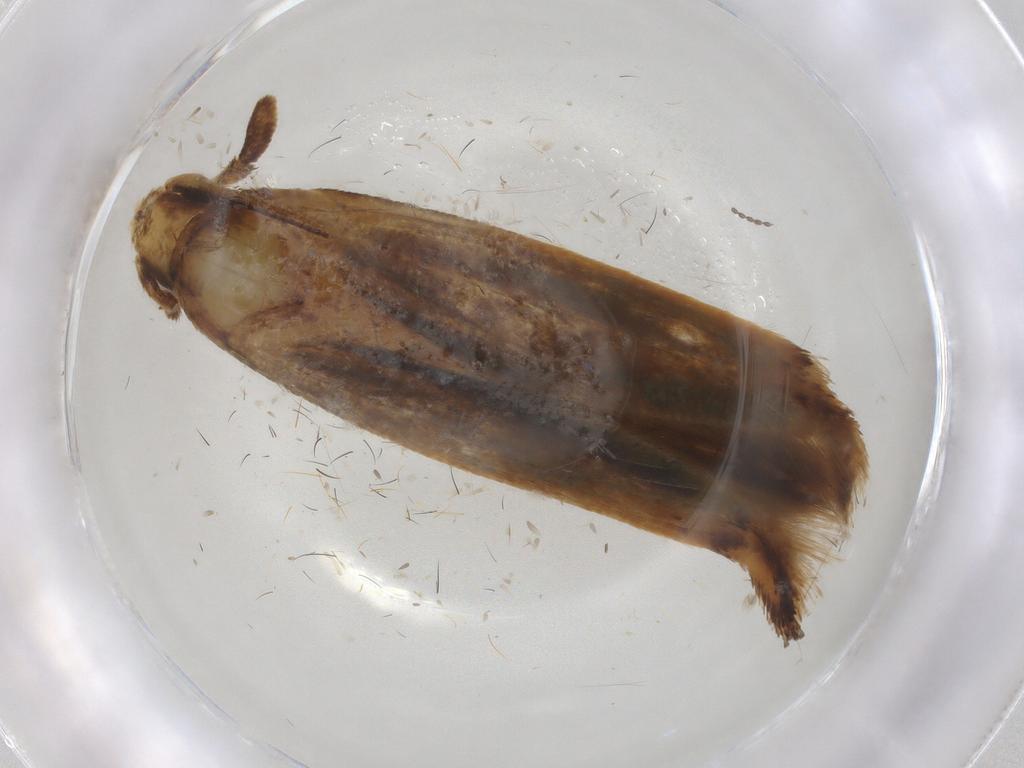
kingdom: Animalia
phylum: Arthropoda
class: Insecta
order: Lepidoptera
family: Tineidae
